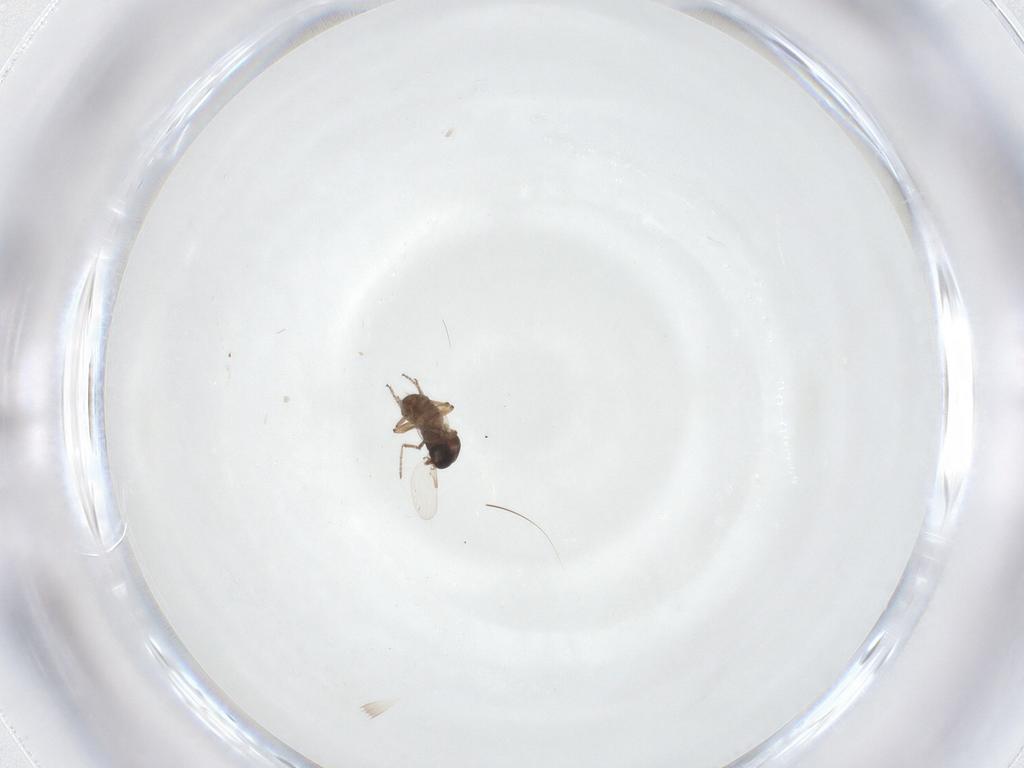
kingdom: Animalia
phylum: Arthropoda
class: Insecta
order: Diptera
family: Ceratopogonidae
